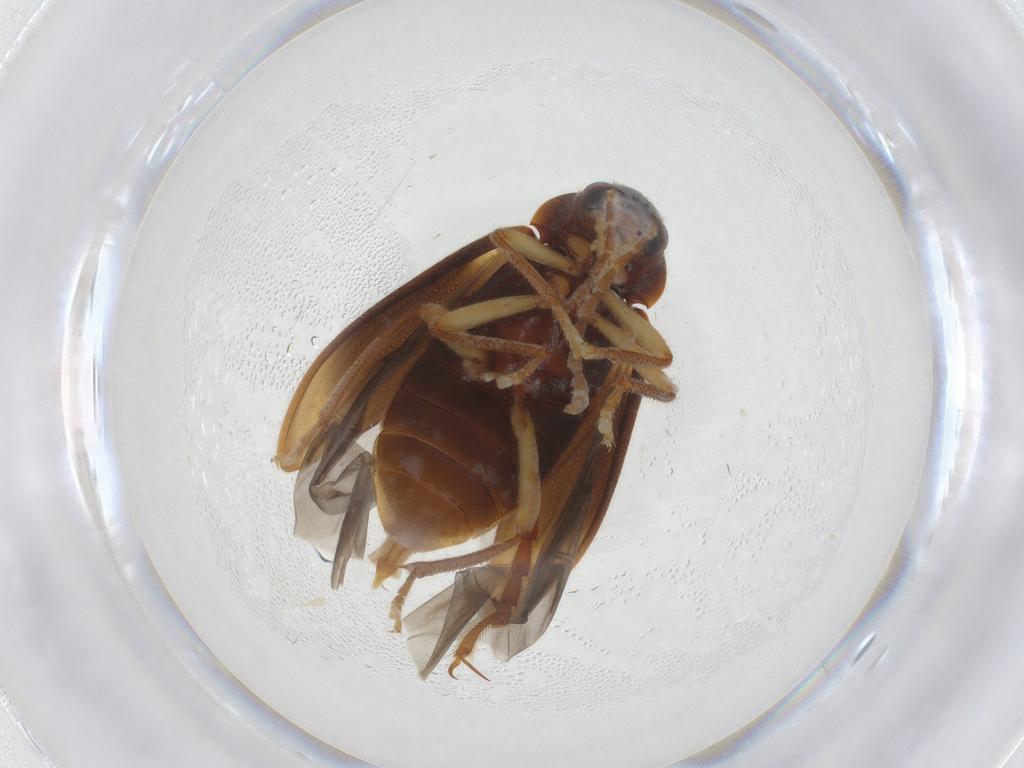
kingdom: Animalia
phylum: Arthropoda
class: Insecta
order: Coleoptera
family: Ptilodactylidae
